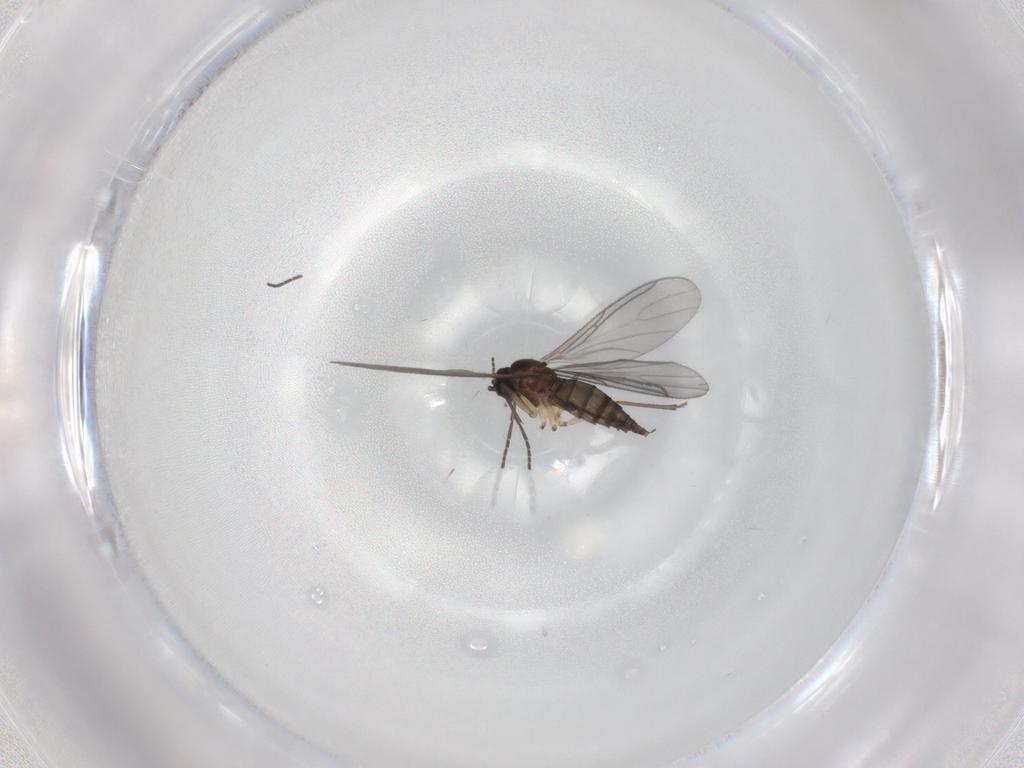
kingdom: Animalia
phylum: Arthropoda
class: Insecta
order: Diptera
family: Sciaridae
